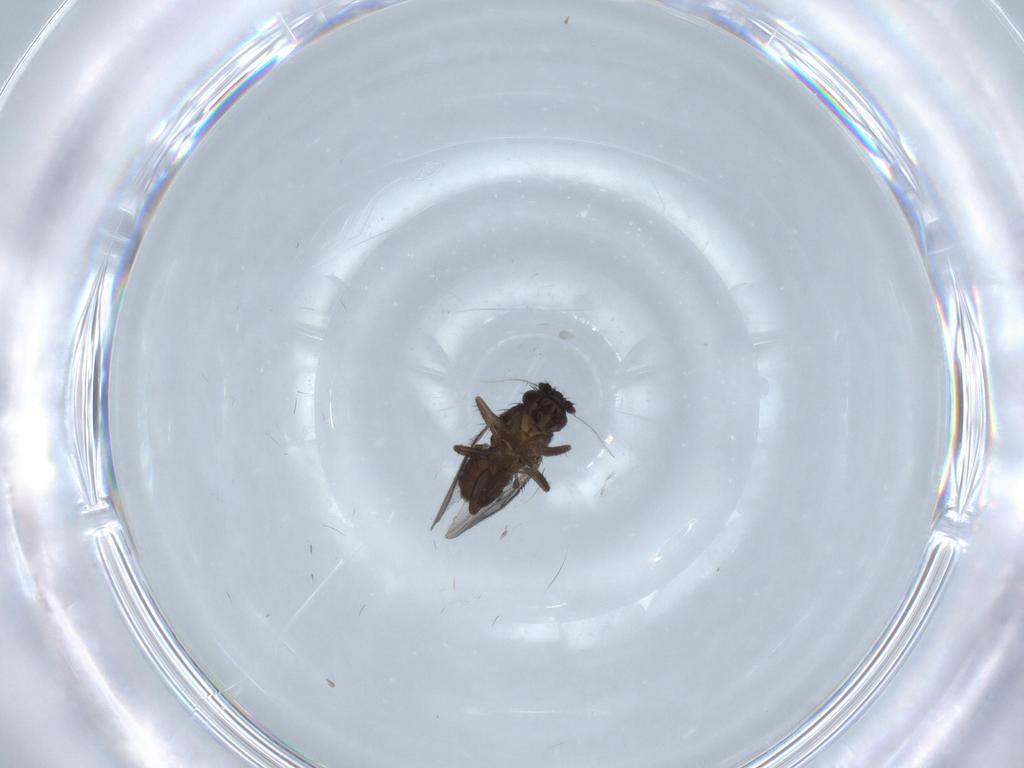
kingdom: Animalia
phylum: Arthropoda
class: Insecta
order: Diptera
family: Sphaeroceridae
